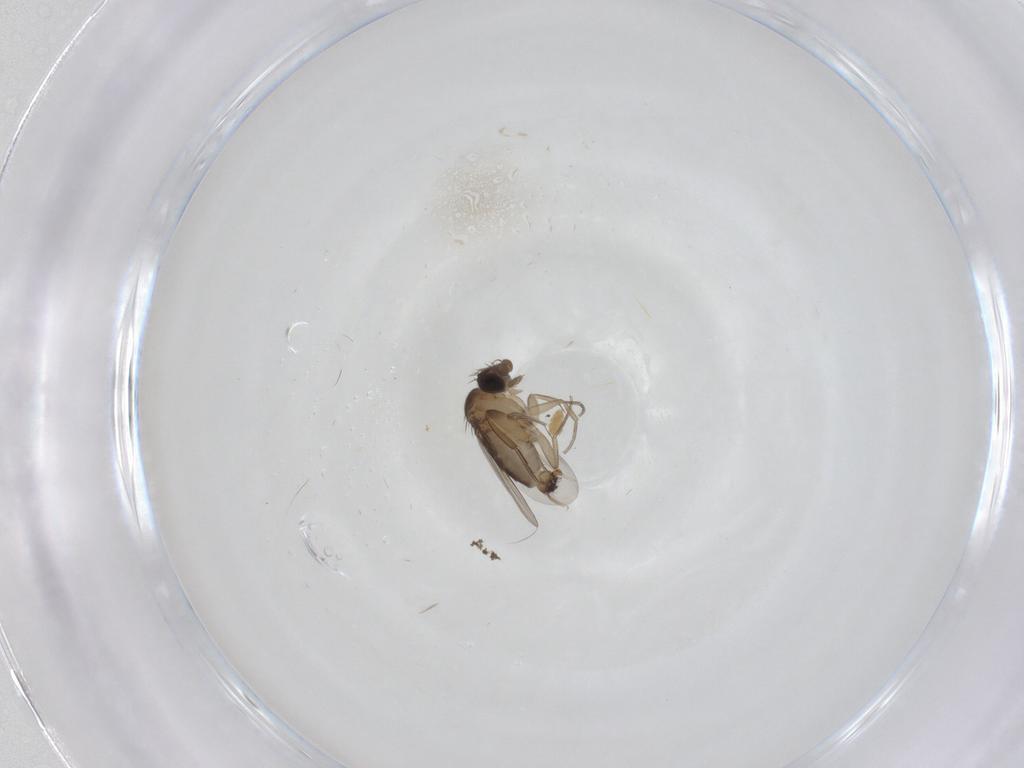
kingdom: Animalia
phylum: Arthropoda
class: Insecta
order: Diptera
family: Phoridae
